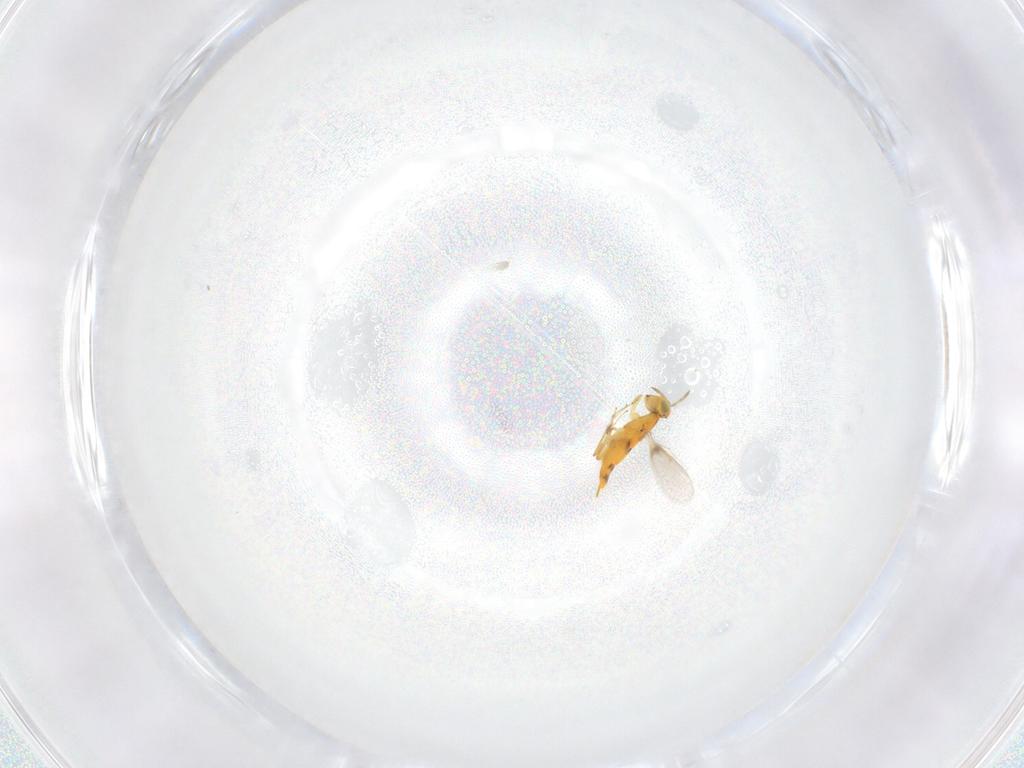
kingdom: Animalia
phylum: Arthropoda
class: Insecta
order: Hymenoptera
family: Aphelinidae
